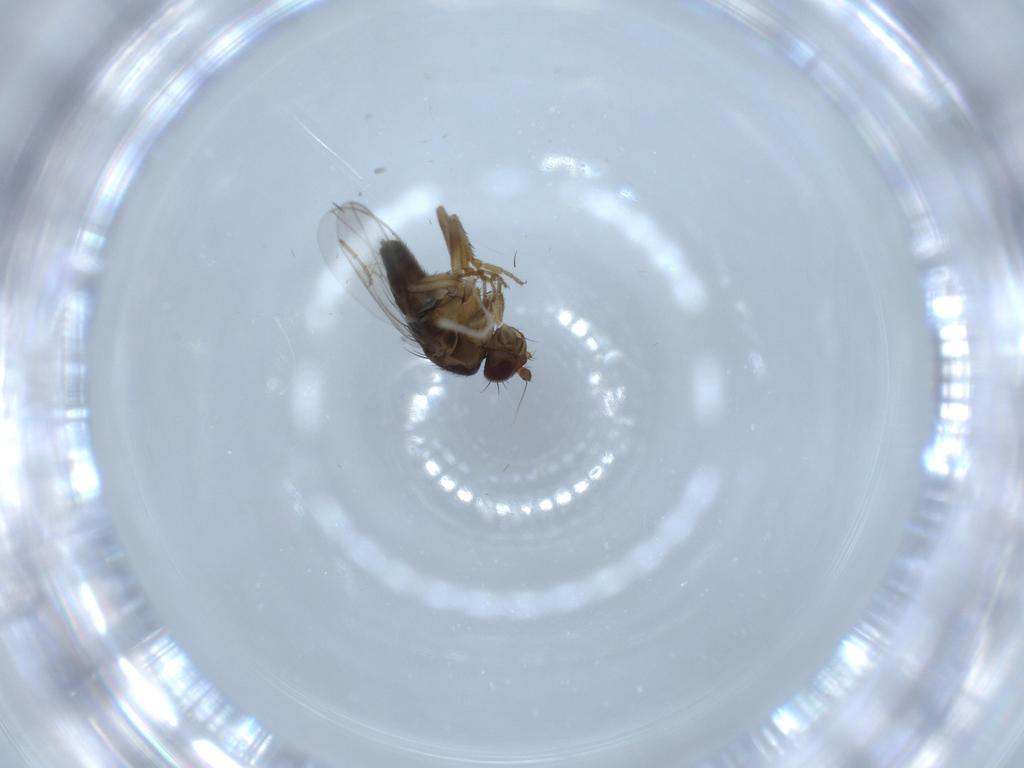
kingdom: Animalia
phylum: Arthropoda
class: Insecta
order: Diptera
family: Sphaeroceridae
